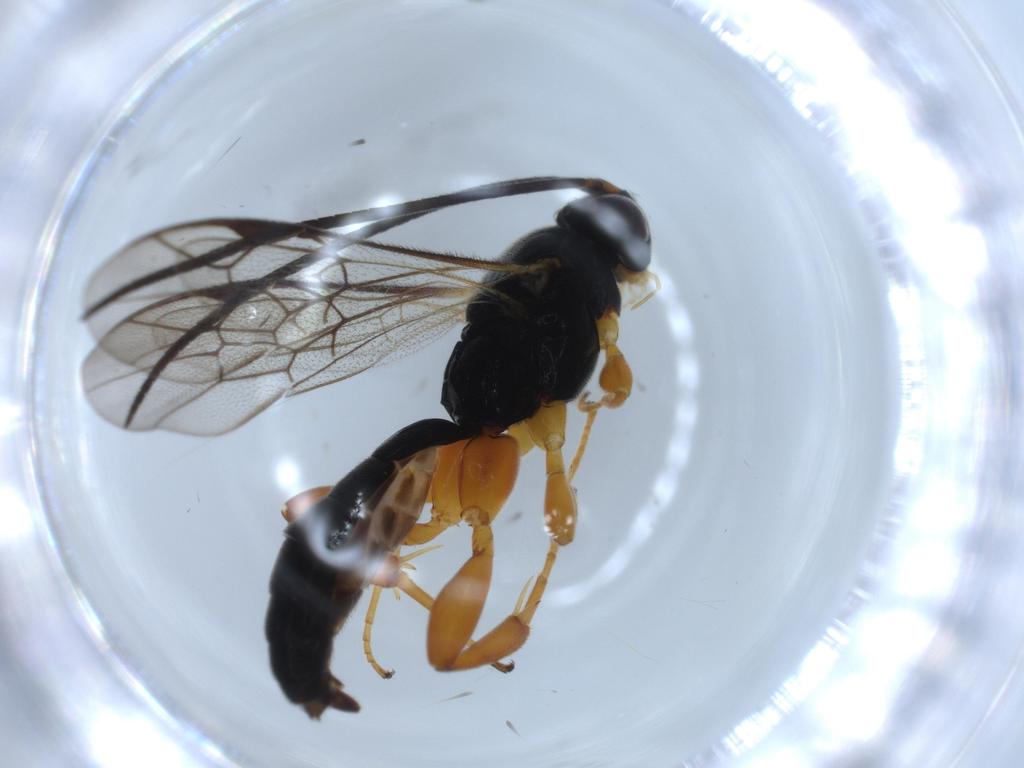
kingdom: Animalia
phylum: Arthropoda
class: Insecta
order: Hymenoptera
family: Ichneumonidae
